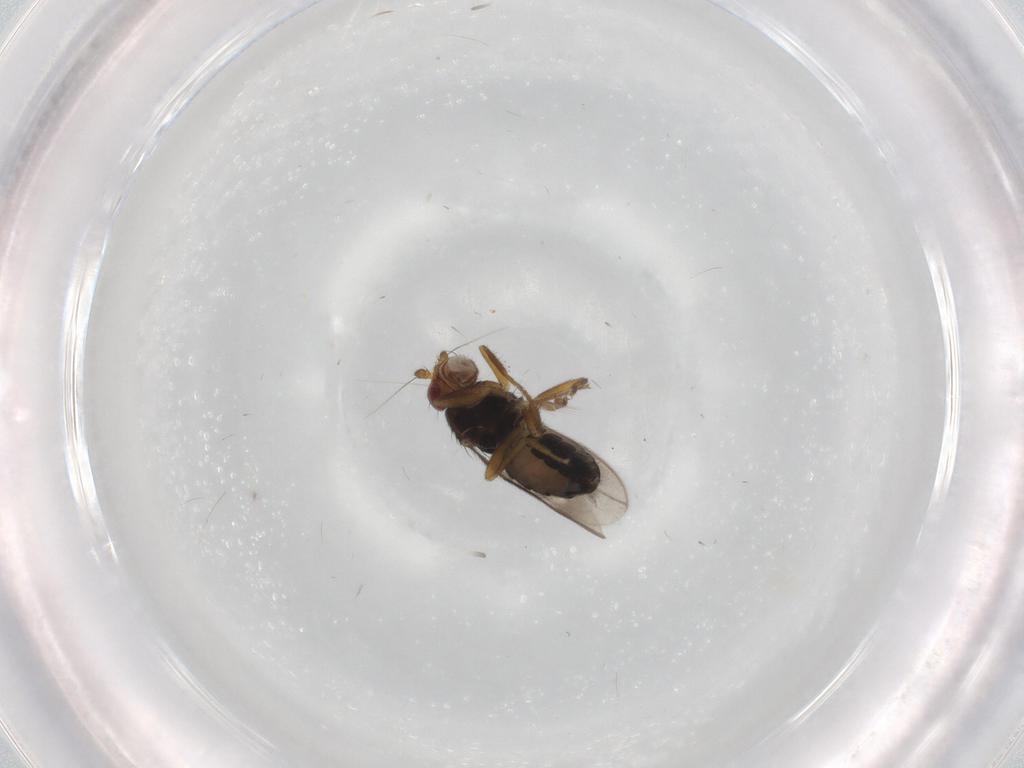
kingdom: Animalia
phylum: Arthropoda
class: Insecta
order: Diptera
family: Sphaeroceridae
